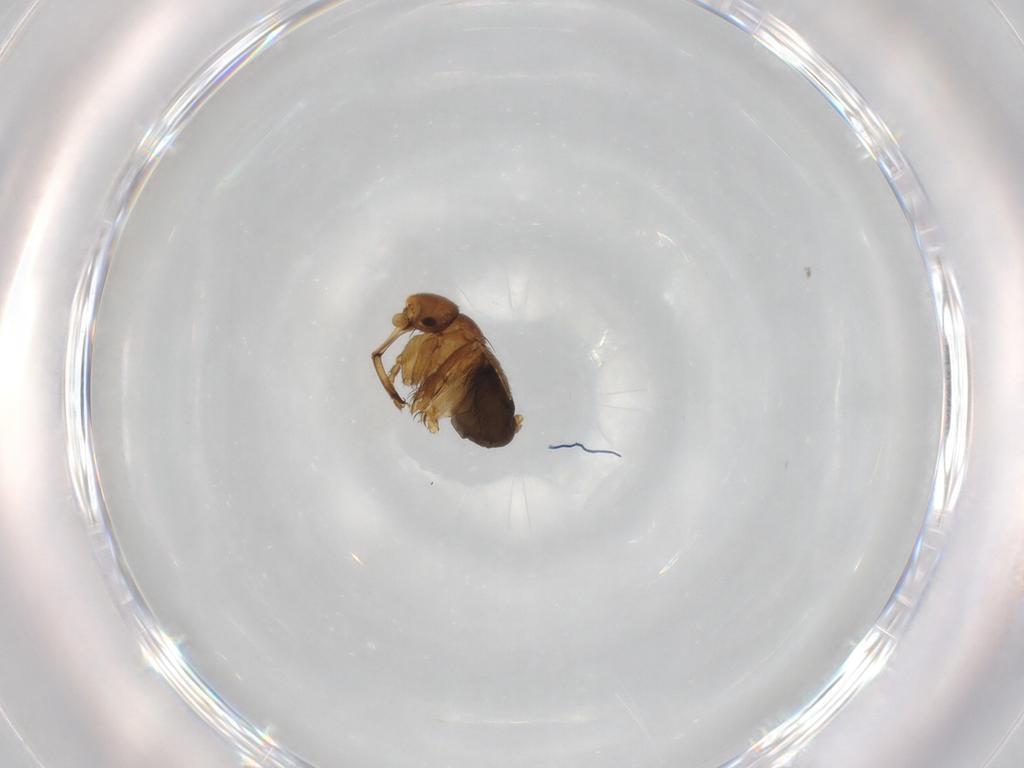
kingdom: Animalia
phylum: Arthropoda
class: Insecta
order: Diptera
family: Phoridae
